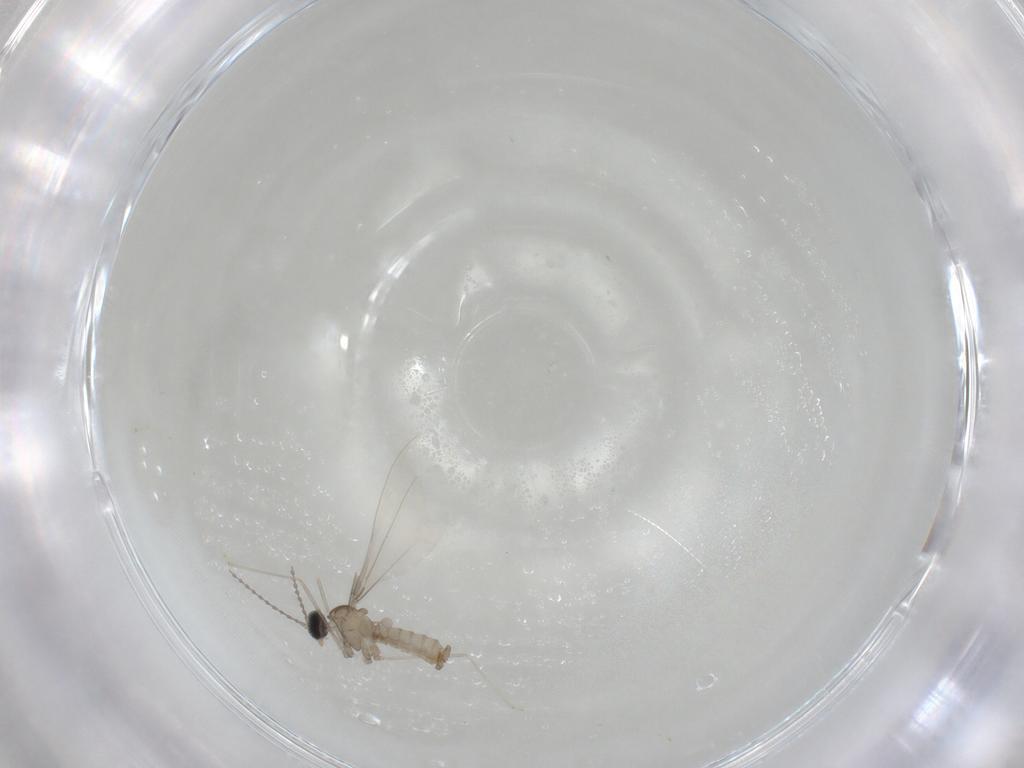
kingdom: Animalia
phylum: Arthropoda
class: Insecta
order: Diptera
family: Cecidomyiidae
